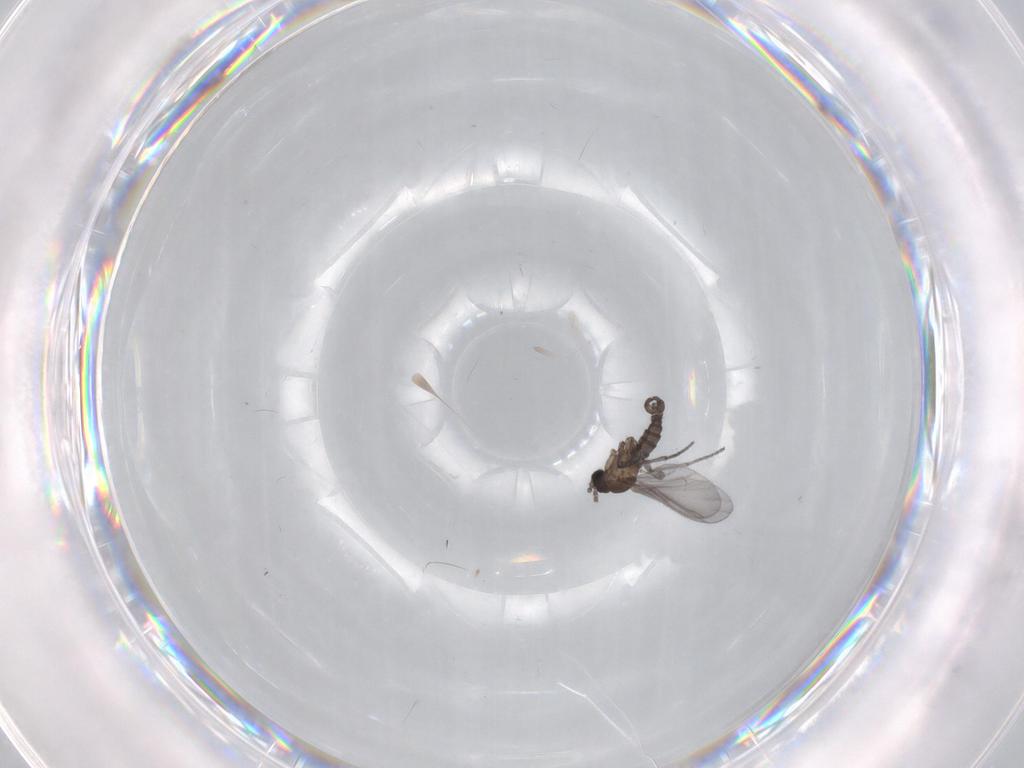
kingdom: Animalia
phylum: Arthropoda
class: Insecta
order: Diptera
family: Sciaridae
